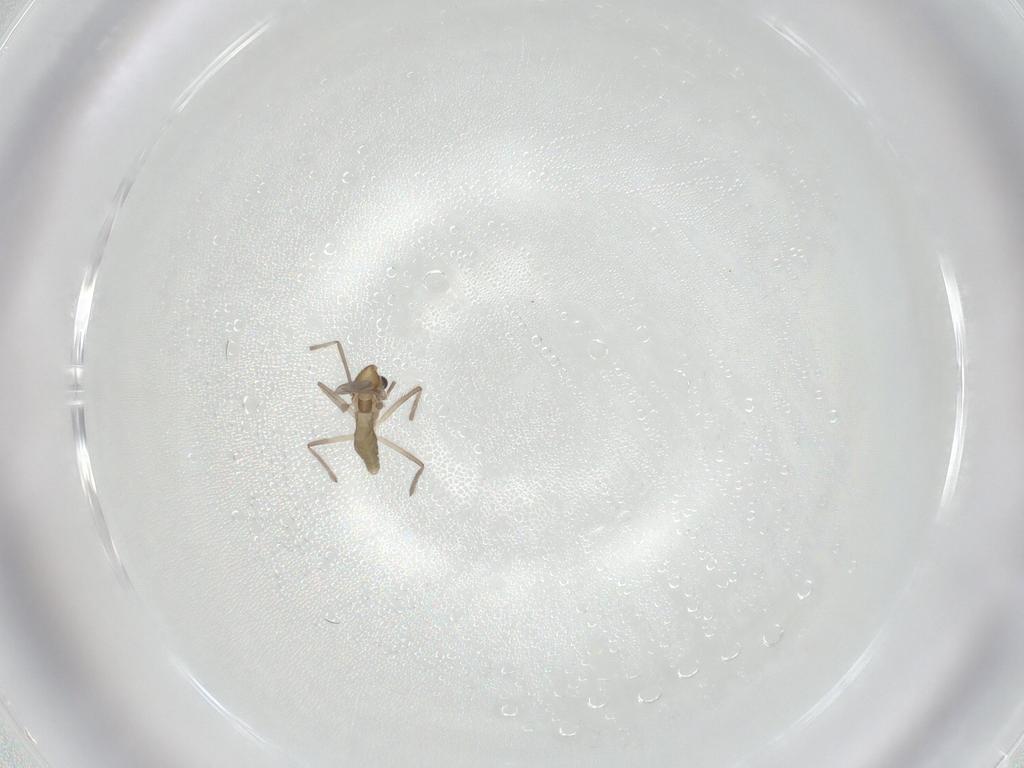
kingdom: Animalia
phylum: Arthropoda
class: Insecta
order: Diptera
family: Chironomidae
